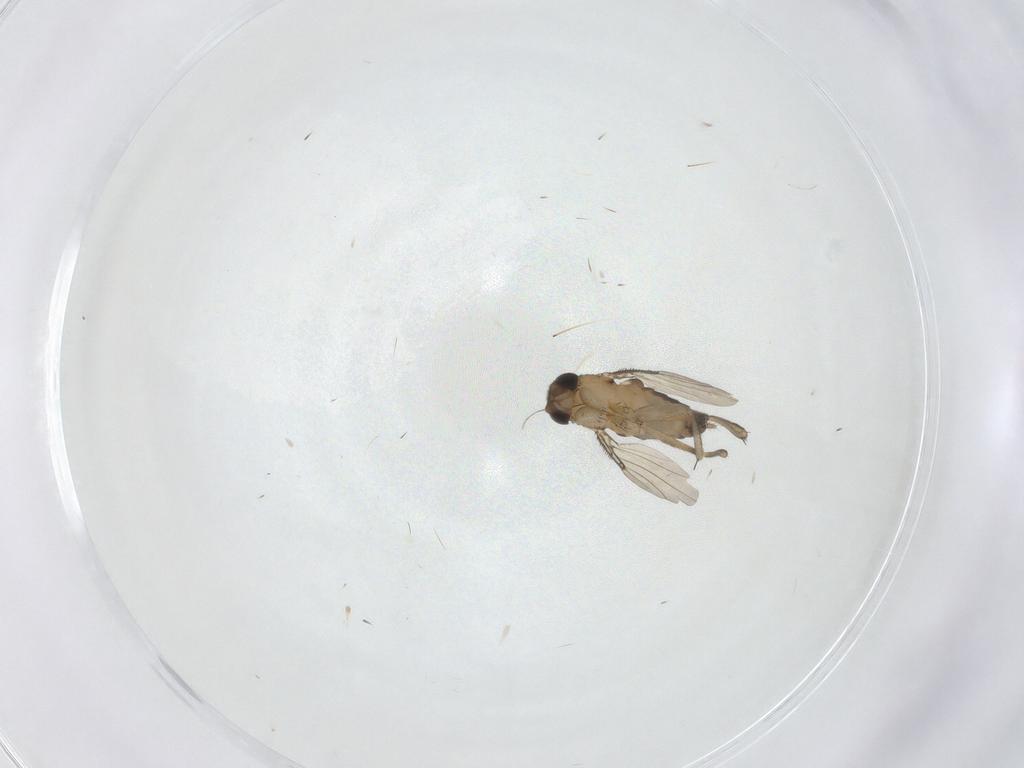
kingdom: Animalia
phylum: Arthropoda
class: Insecta
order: Diptera
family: Phoridae
